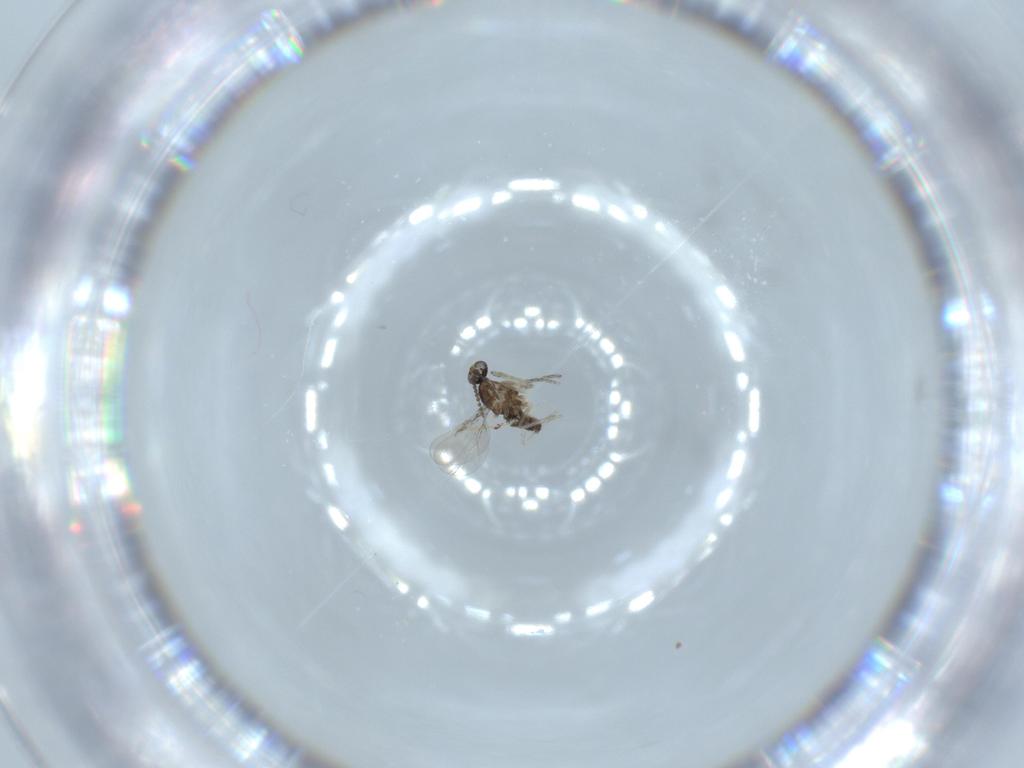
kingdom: Animalia
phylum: Arthropoda
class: Insecta
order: Diptera
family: Cecidomyiidae
